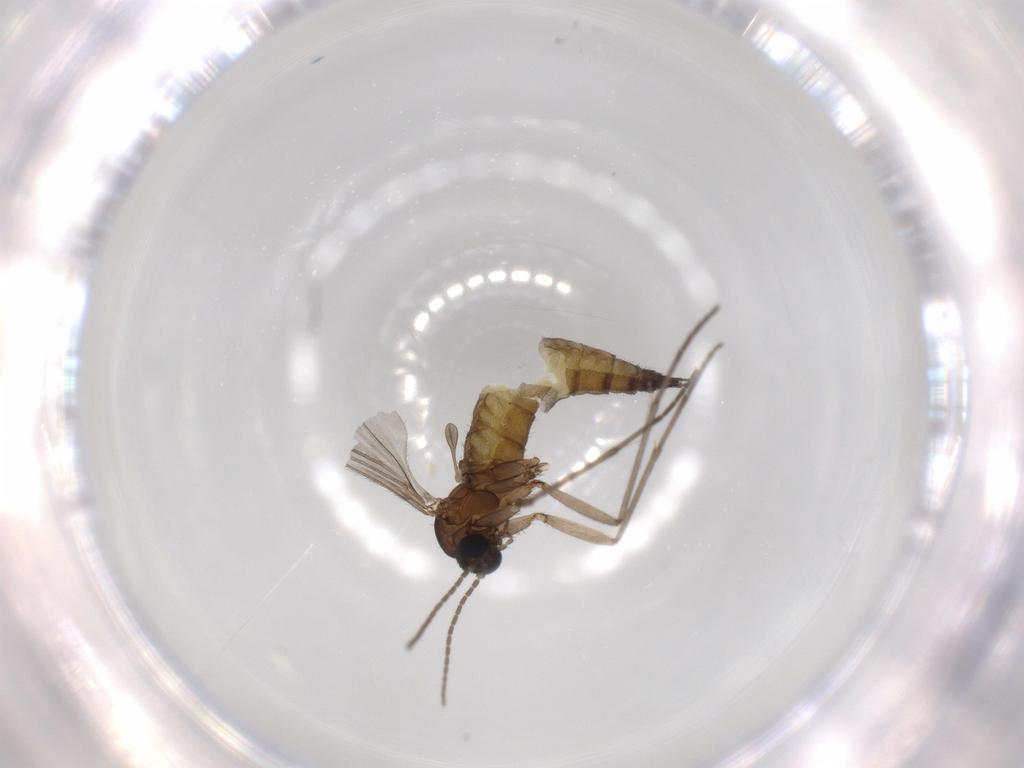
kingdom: Animalia
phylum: Arthropoda
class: Insecta
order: Diptera
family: Sciaridae
